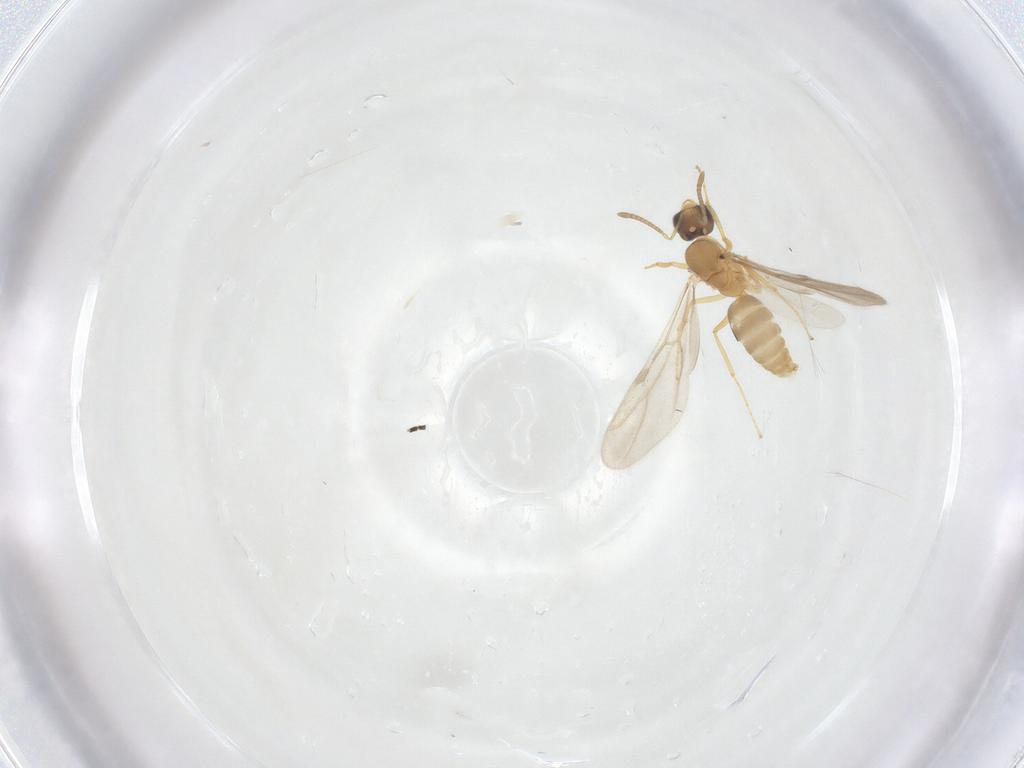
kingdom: Animalia
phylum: Arthropoda
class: Insecta
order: Hymenoptera
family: Formicidae
